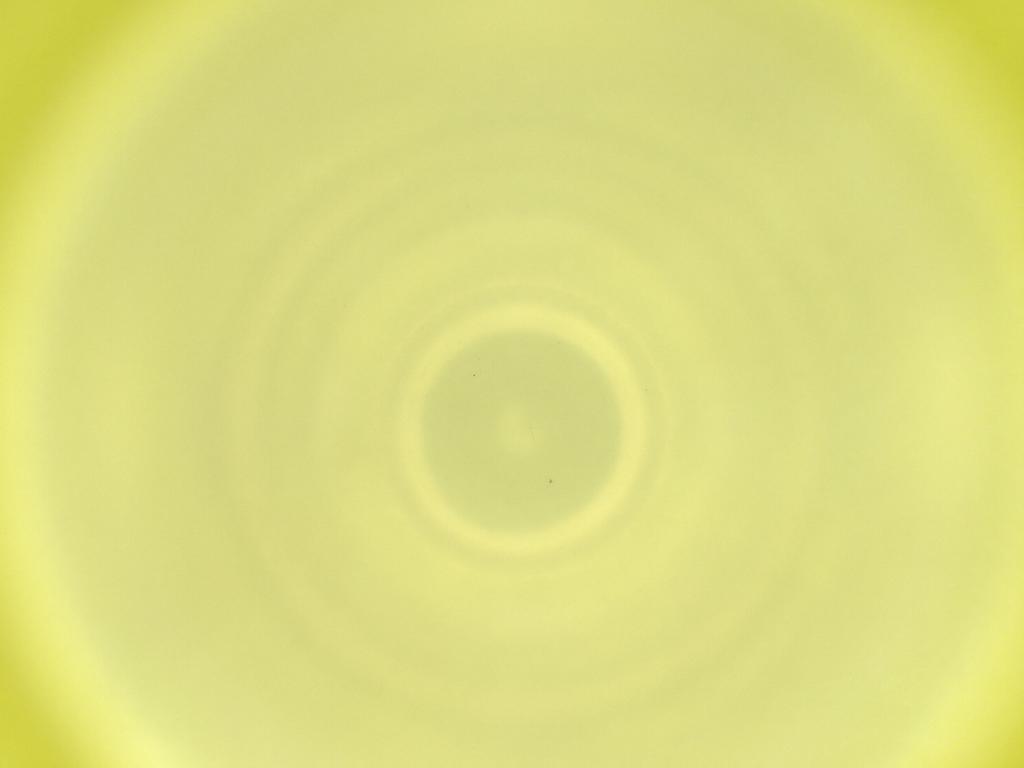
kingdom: Animalia
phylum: Arthropoda
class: Insecta
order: Diptera
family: Cecidomyiidae
